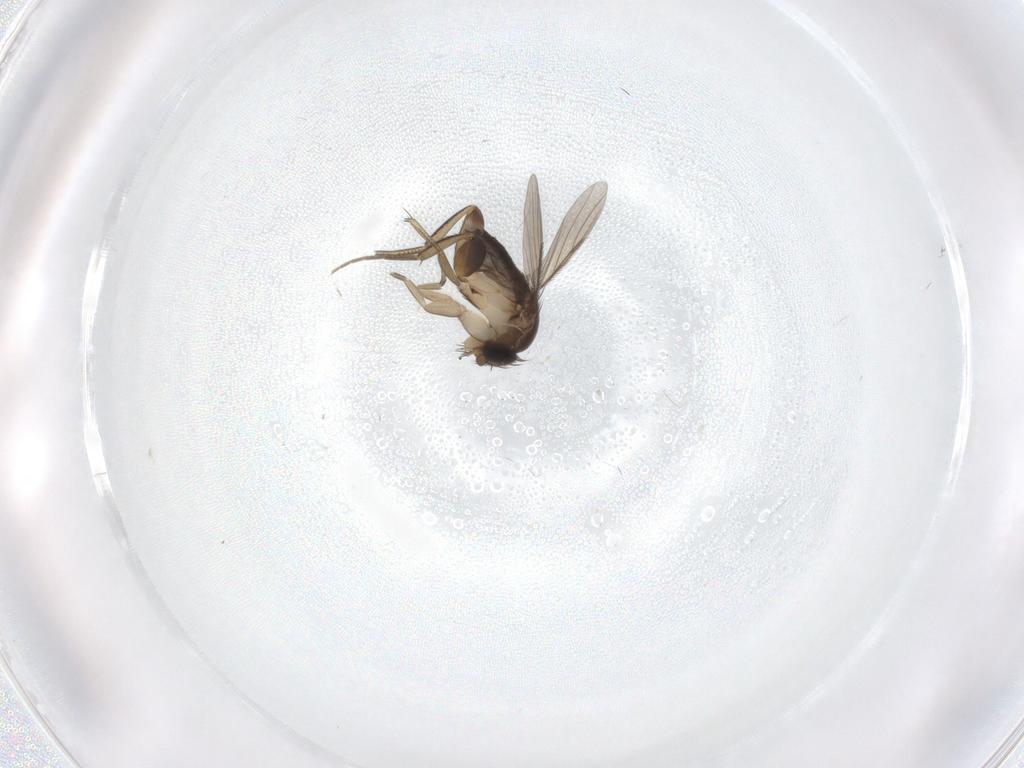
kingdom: Animalia
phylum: Arthropoda
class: Insecta
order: Diptera
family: Phoridae
